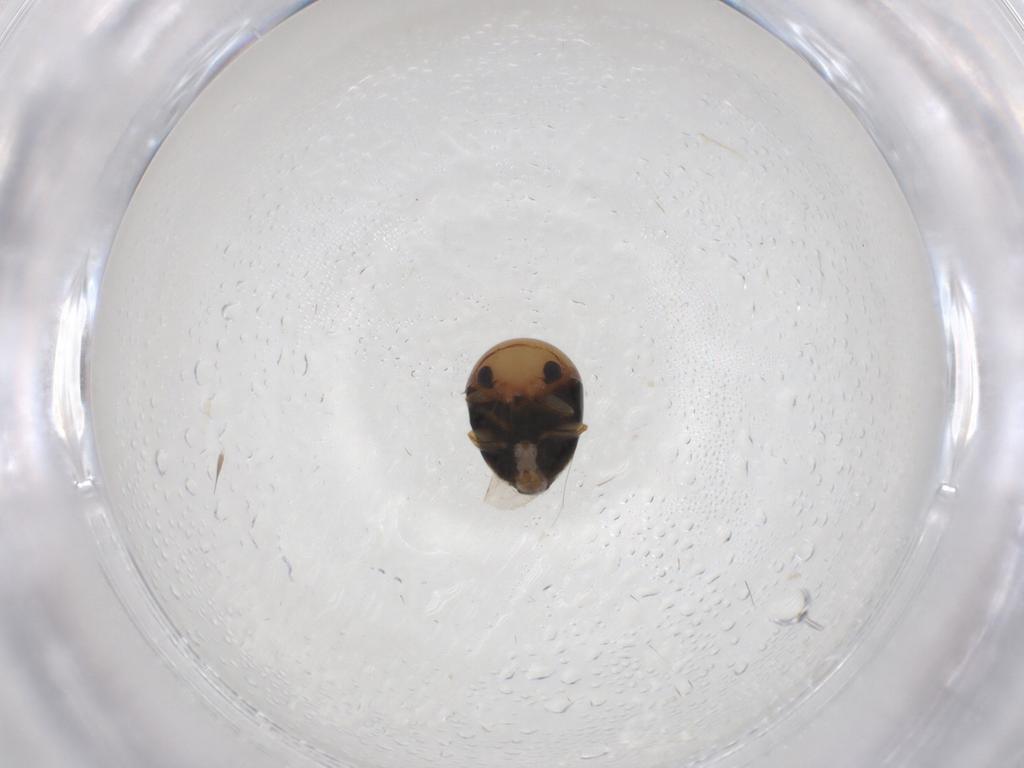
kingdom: Animalia
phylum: Arthropoda
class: Insecta
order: Coleoptera
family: Cybocephalidae
